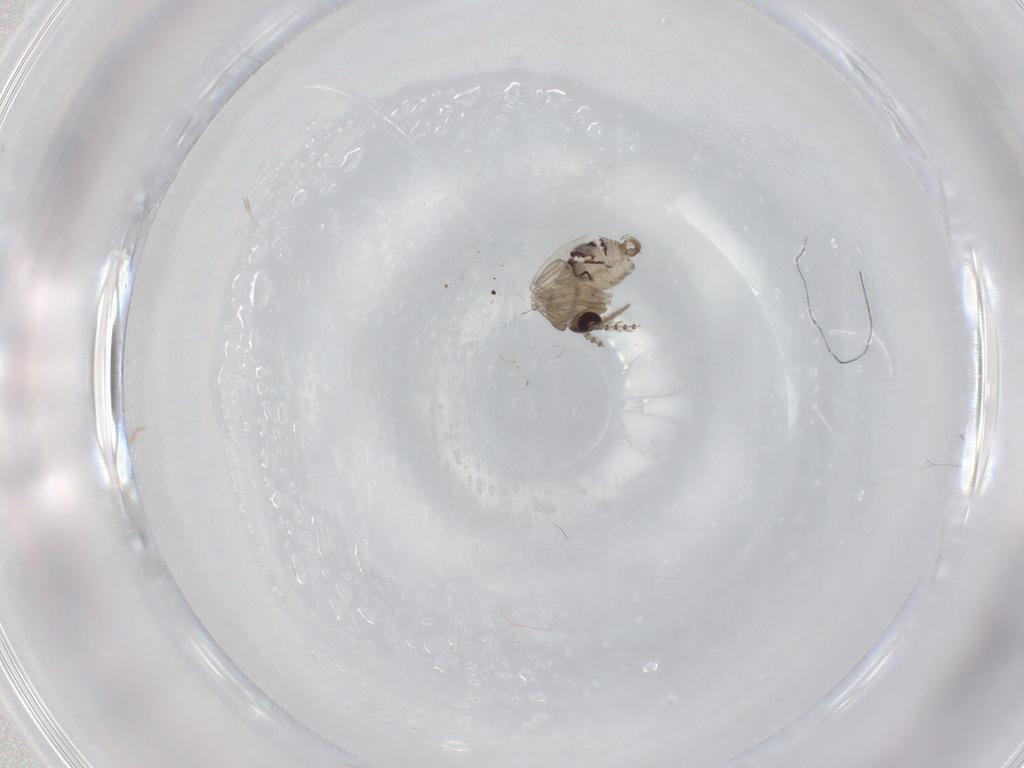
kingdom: Animalia
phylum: Arthropoda
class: Insecta
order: Diptera
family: Psychodidae
